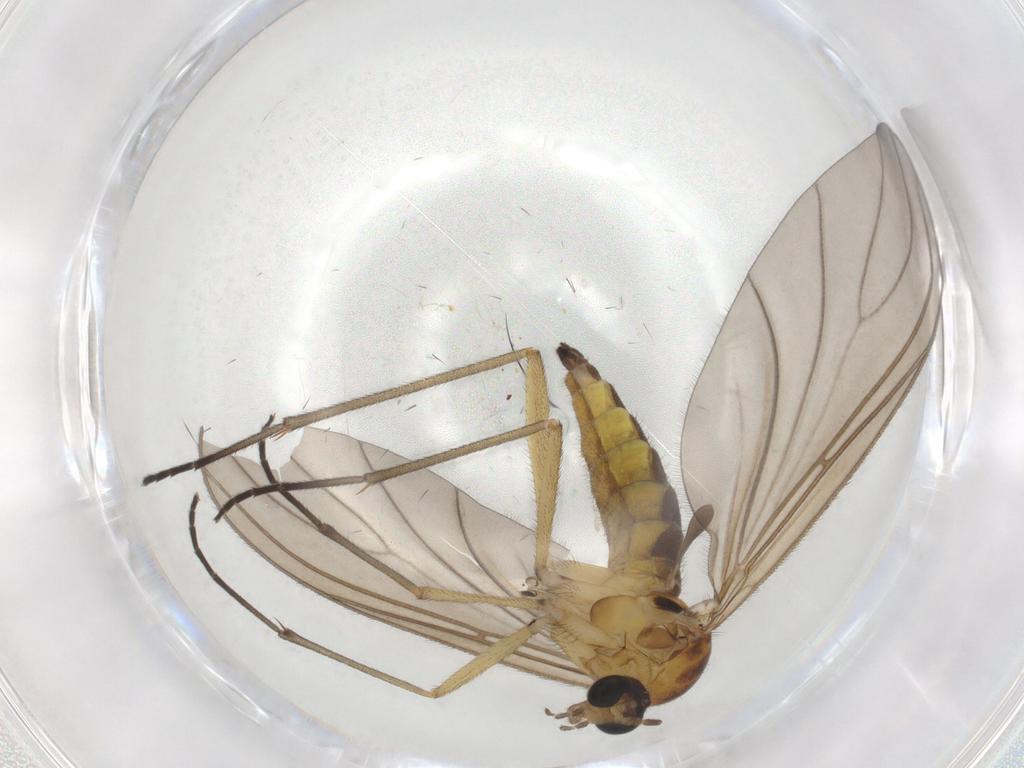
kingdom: Animalia
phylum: Arthropoda
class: Insecta
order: Diptera
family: Sciaridae
